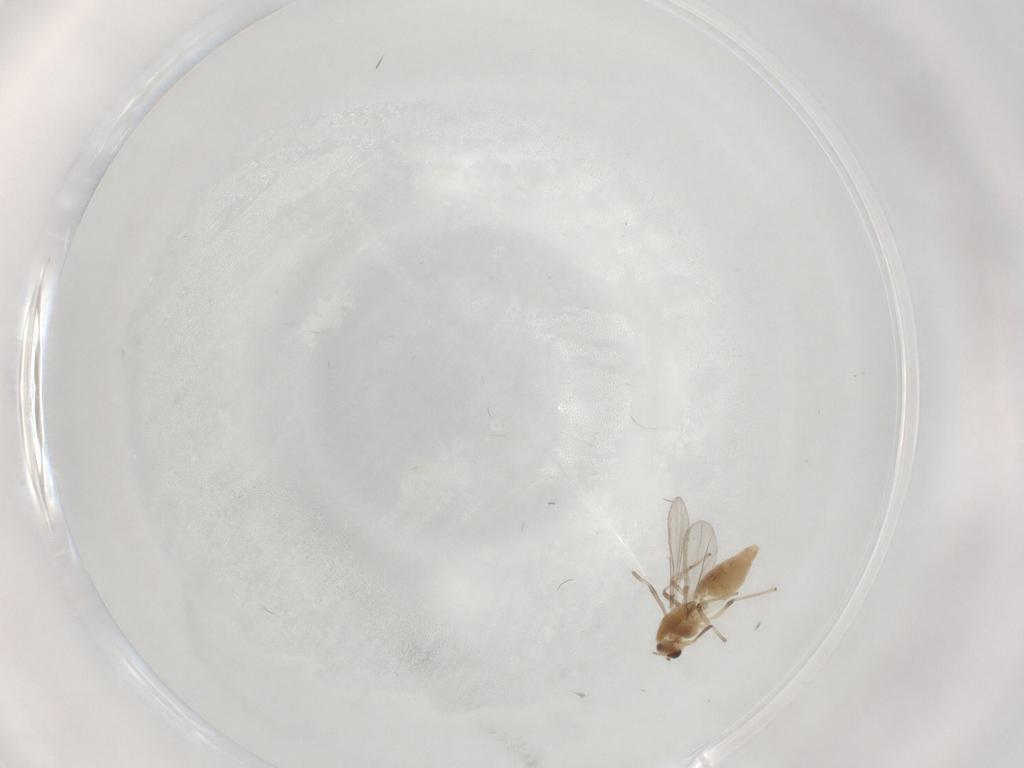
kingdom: Animalia
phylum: Arthropoda
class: Insecta
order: Diptera
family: Chironomidae
